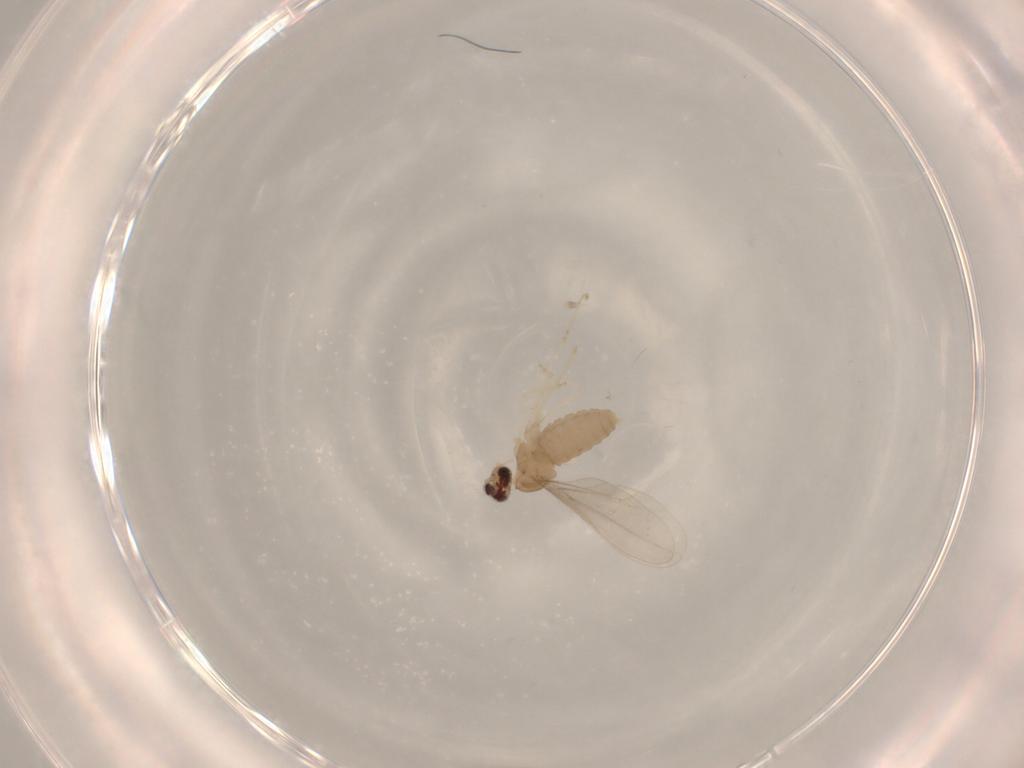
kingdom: Animalia
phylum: Arthropoda
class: Insecta
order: Diptera
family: Cecidomyiidae
